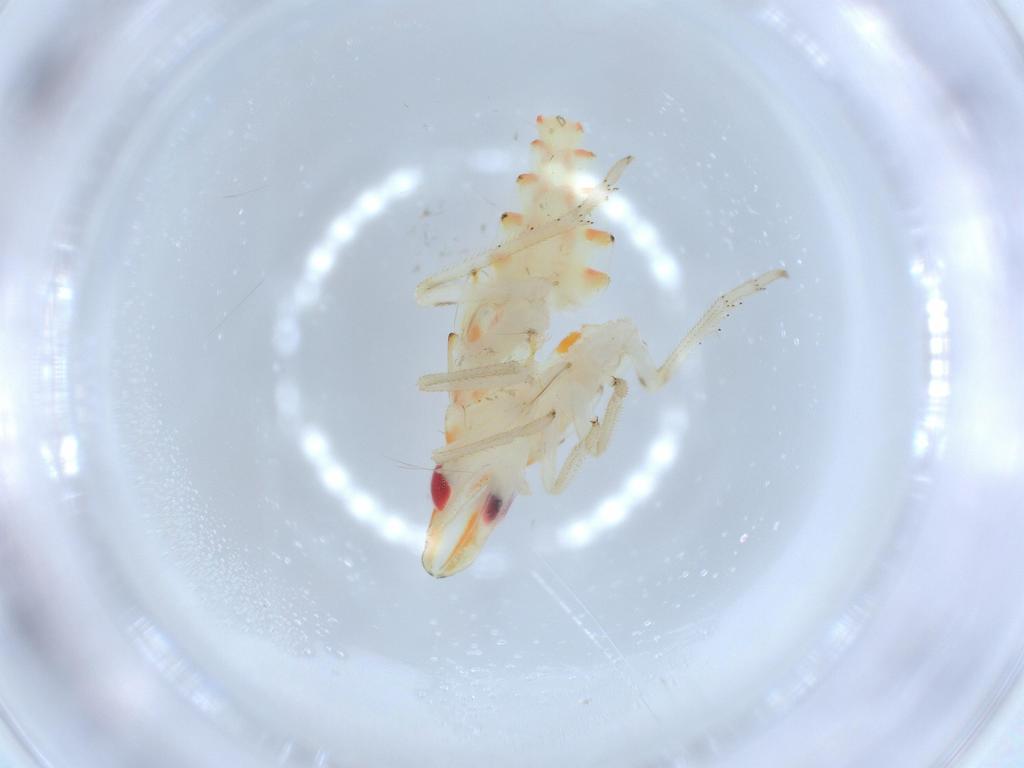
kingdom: Animalia
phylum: Arthropoda
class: Insecta
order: Hemiptera
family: Tropiduchidae
